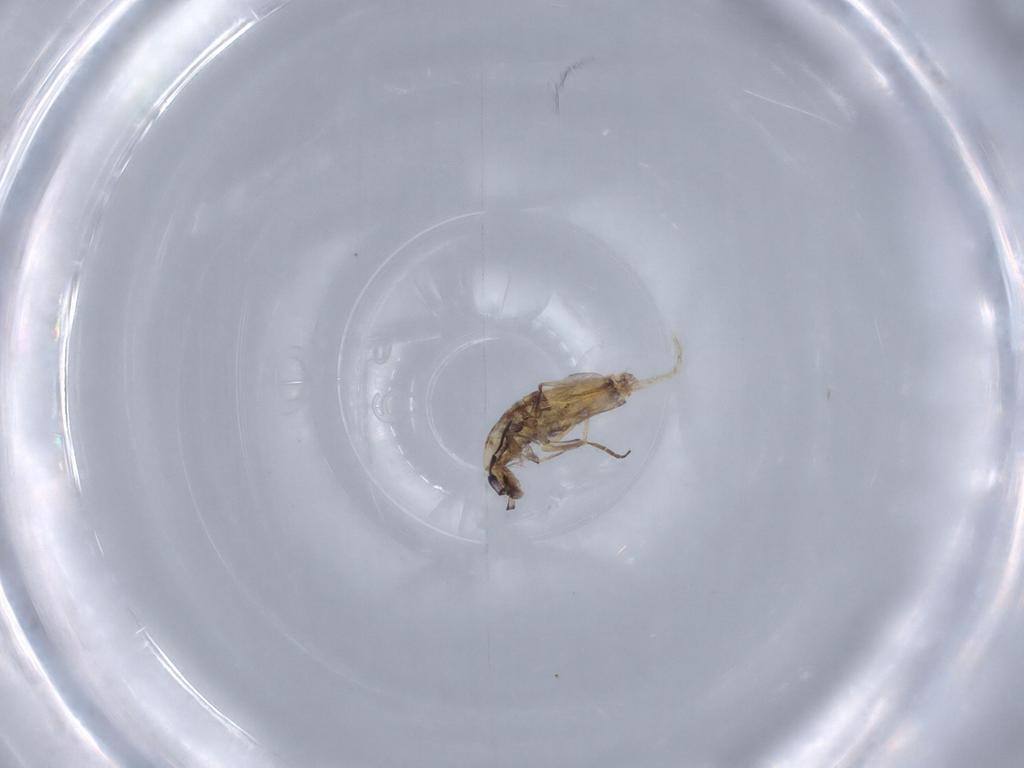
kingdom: Animalia
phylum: Arthropoda
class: Collembola
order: Poduromorpha
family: Hypogastruridae
